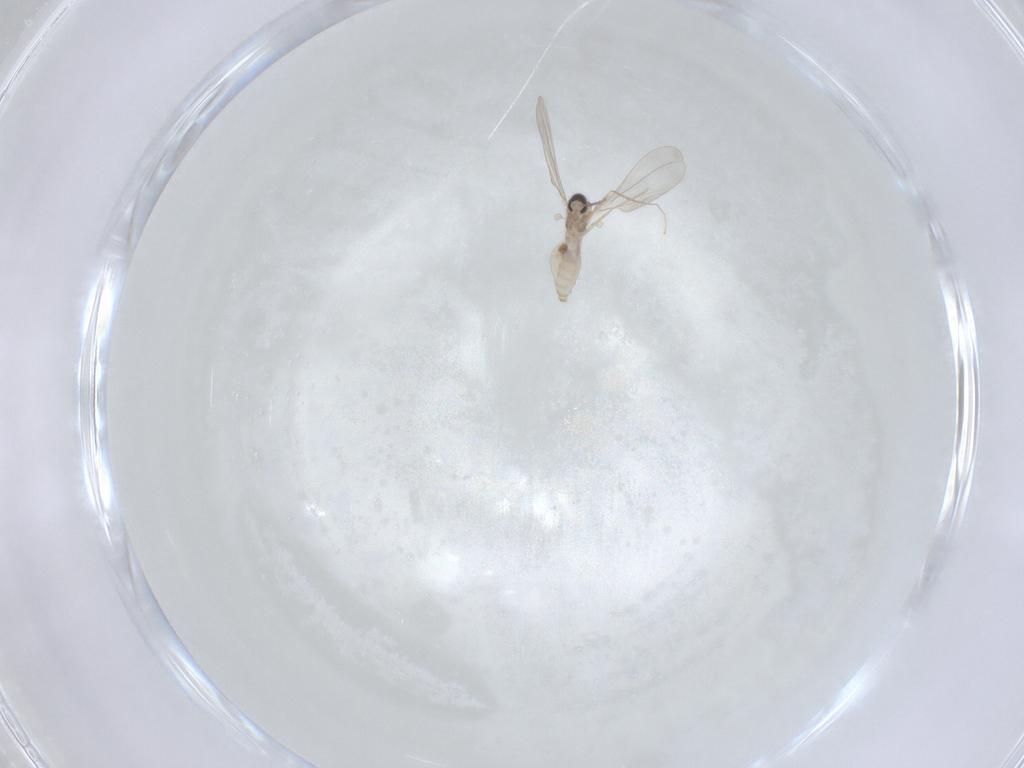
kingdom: Animalia
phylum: Arthropoda
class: Insecta
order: Diptera
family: Cecidomyiidae
